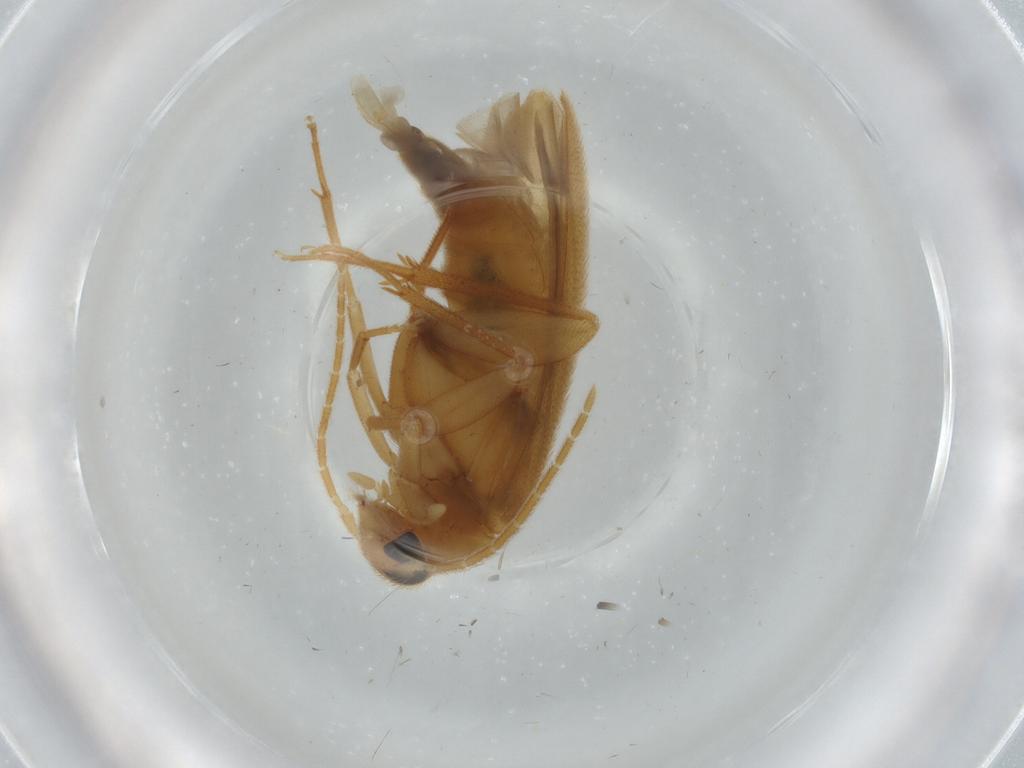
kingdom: Animalia
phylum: Arthropoda
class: Insecta
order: Coleoptera
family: Scraptiidae
